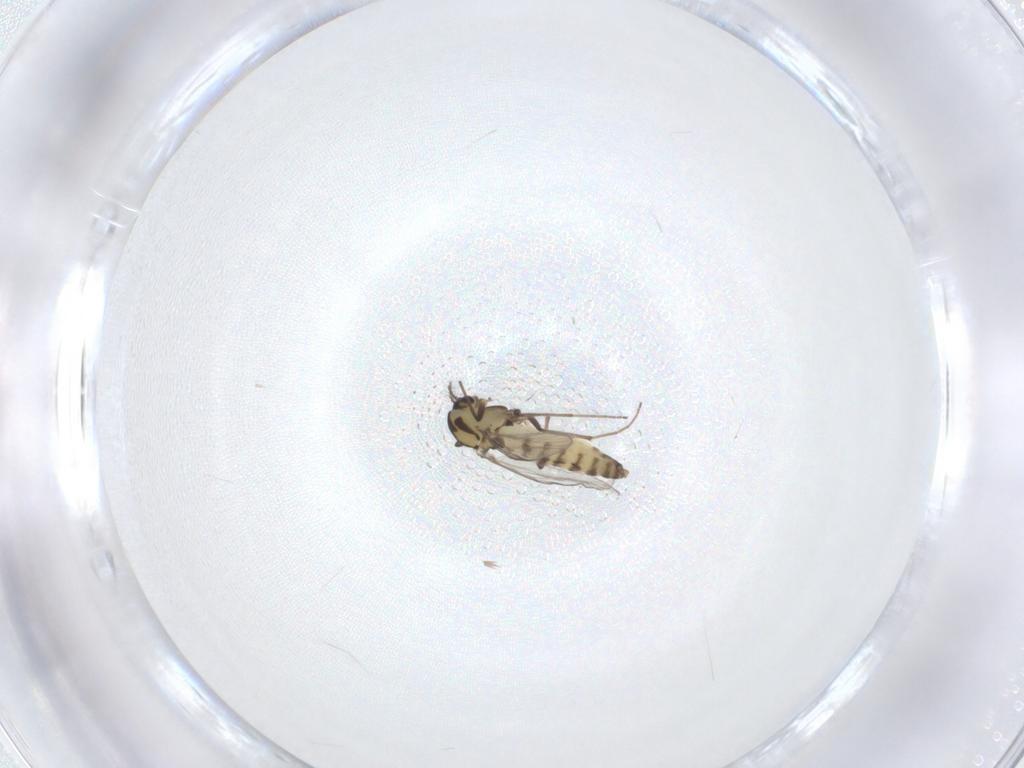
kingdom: Animalia
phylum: Arthropoda
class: Insecta
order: Diptera
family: Chironomidae
